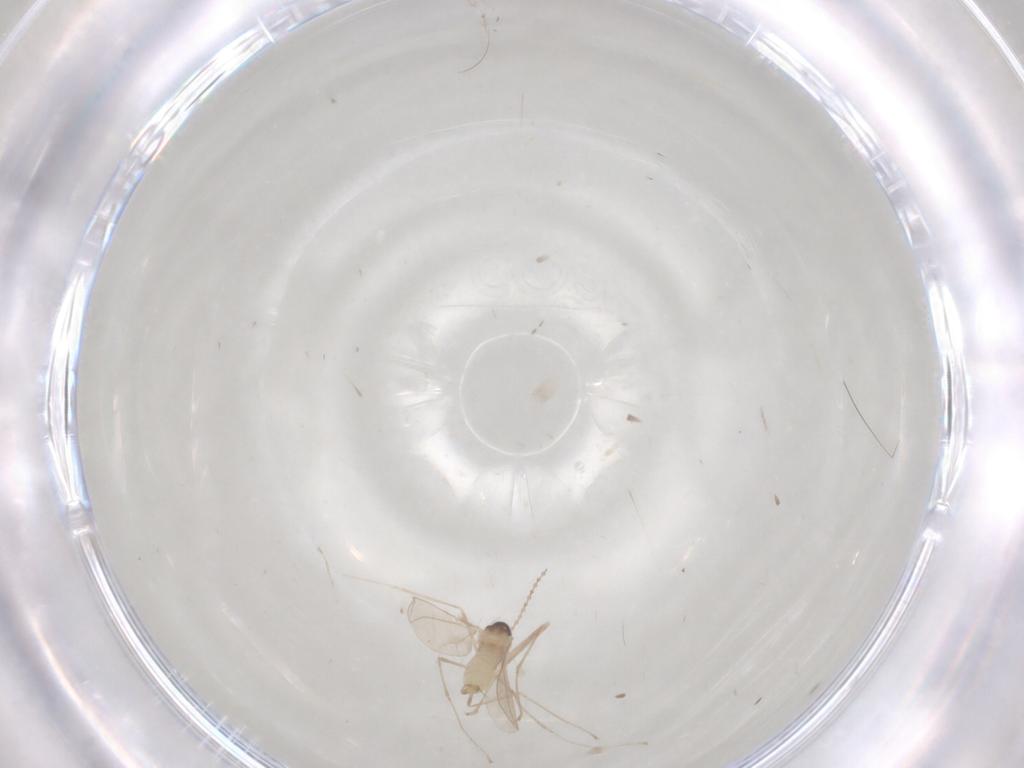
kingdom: Animalia
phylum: Arthropoda
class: Insecta
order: Diptera
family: Cecidomyiidae
